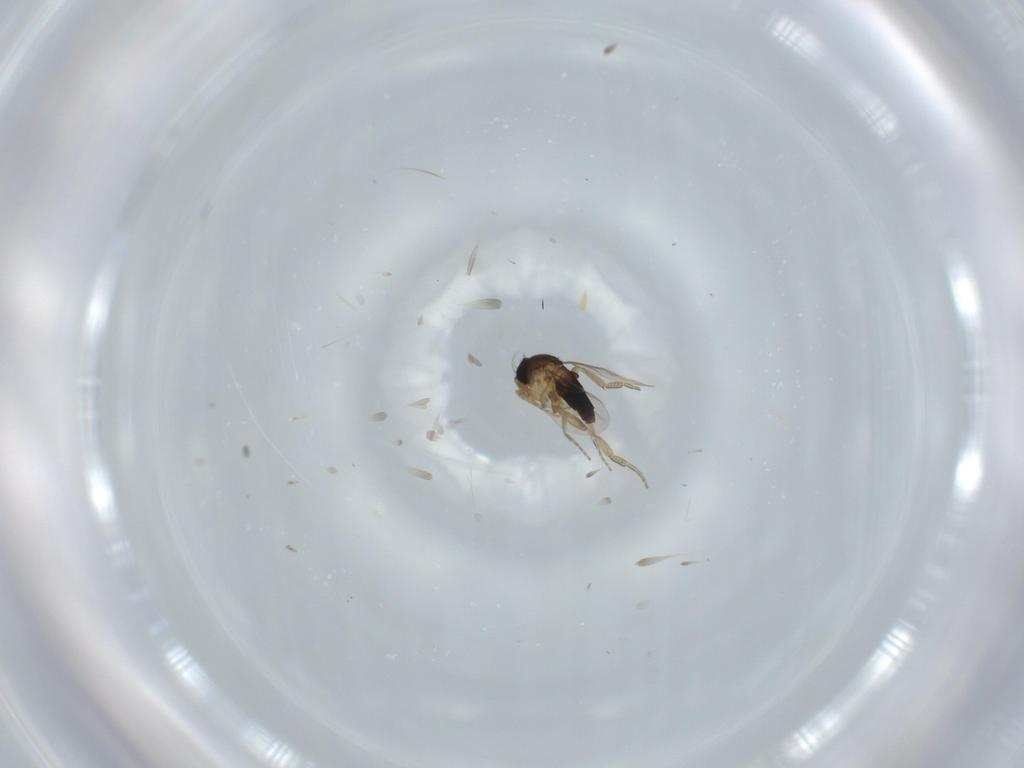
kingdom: Animalia
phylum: Arthropoda
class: Insecta
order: Diptera
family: Phoridae
